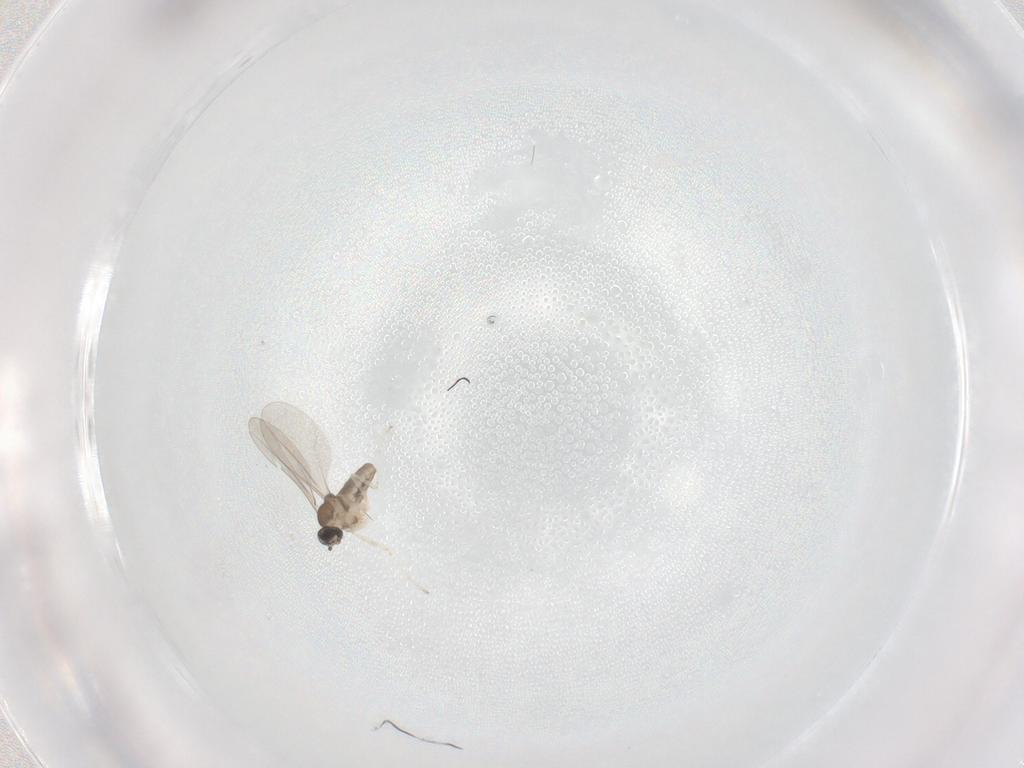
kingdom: Animalia
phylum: Arthropoda
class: Insecta
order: Diptera
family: Cecidomyiidae
